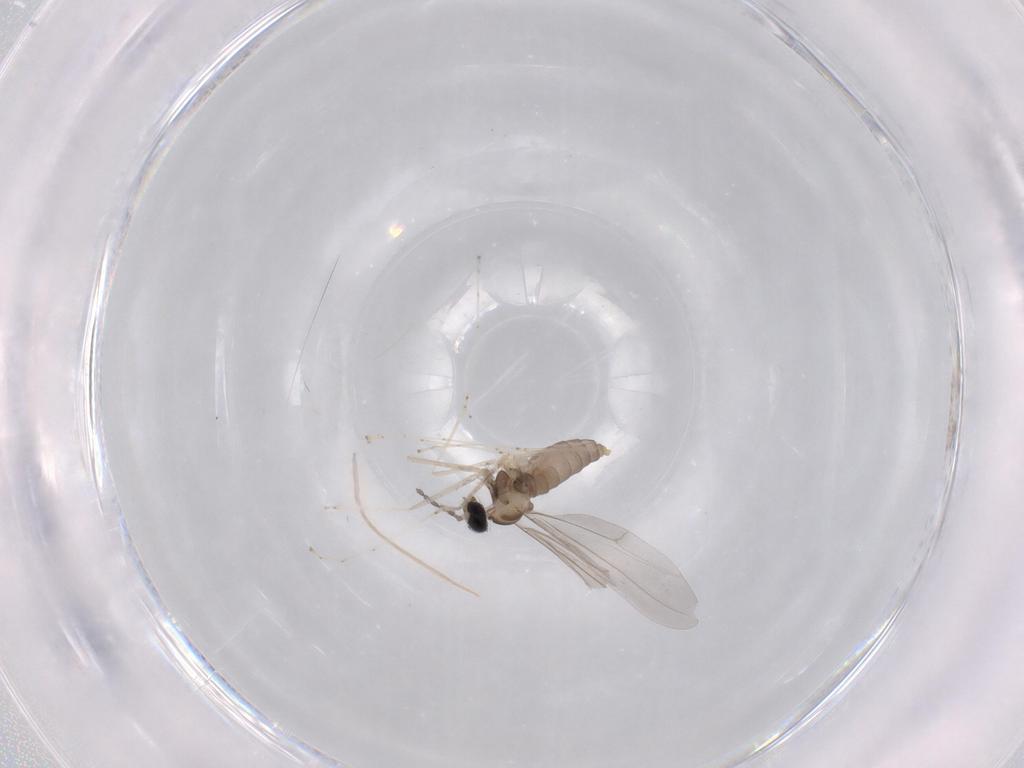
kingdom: Animalia
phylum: Arthropoda
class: Insecta
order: Diptera
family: Cecidomyiidae
